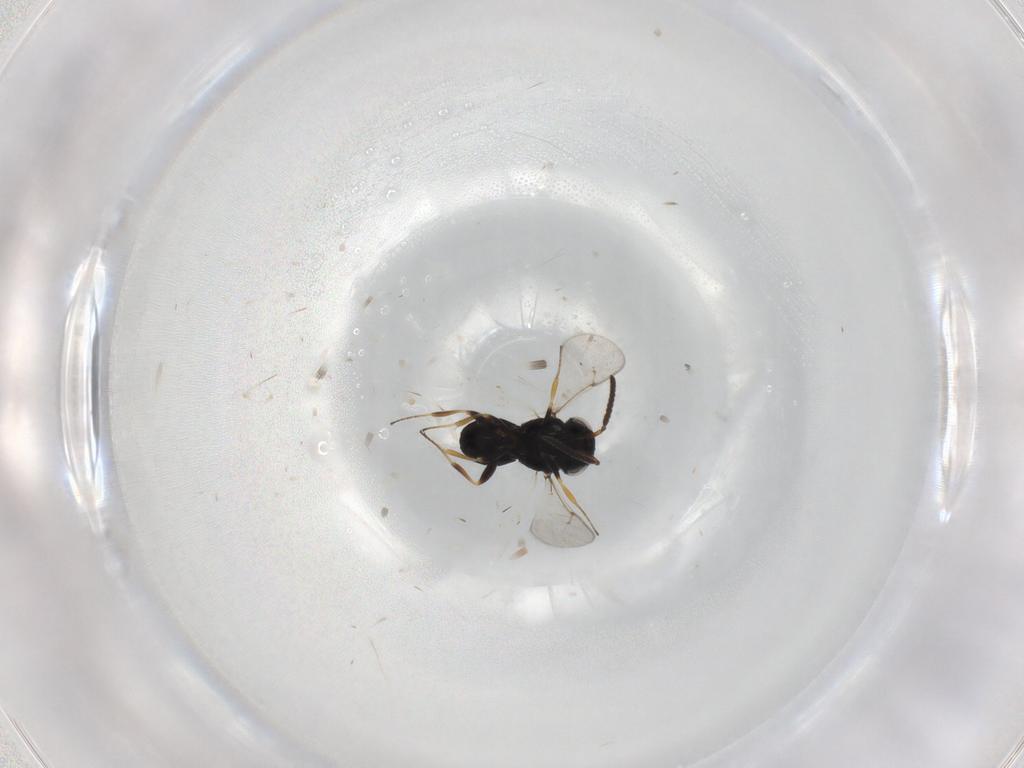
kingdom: Animalia
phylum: Arthropoda
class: Insecta
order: Coleoptera
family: Curculionidae
